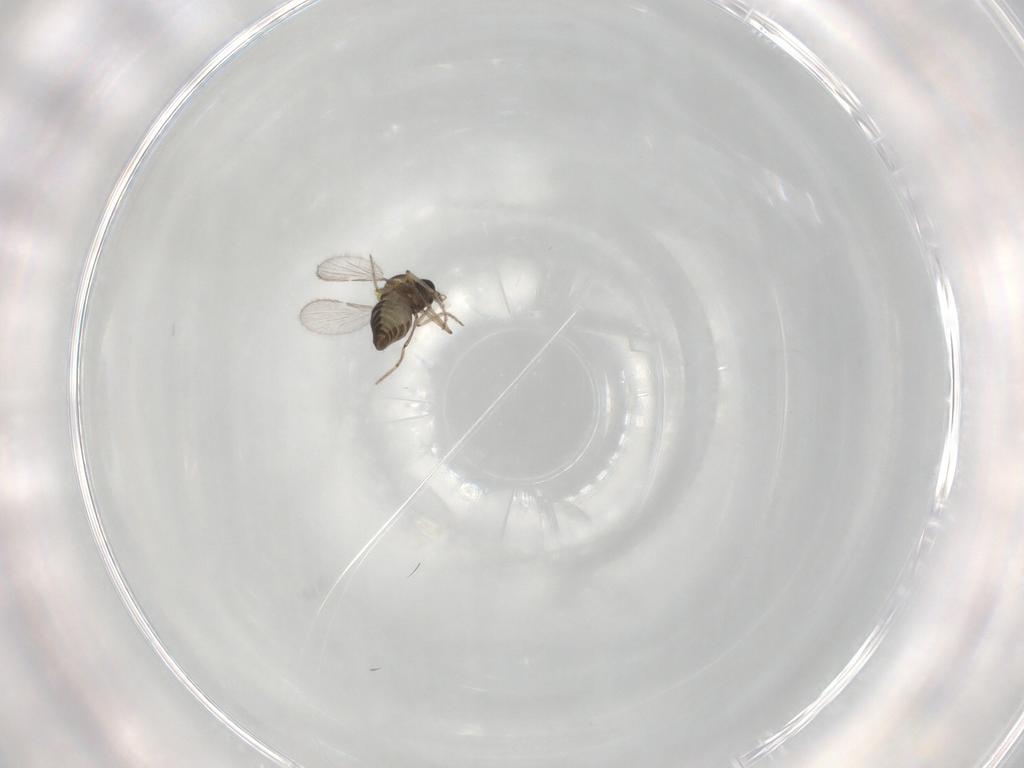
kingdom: Animalia
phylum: Arthropoda
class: Insecta
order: Diptera
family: Ceratopogonidae
